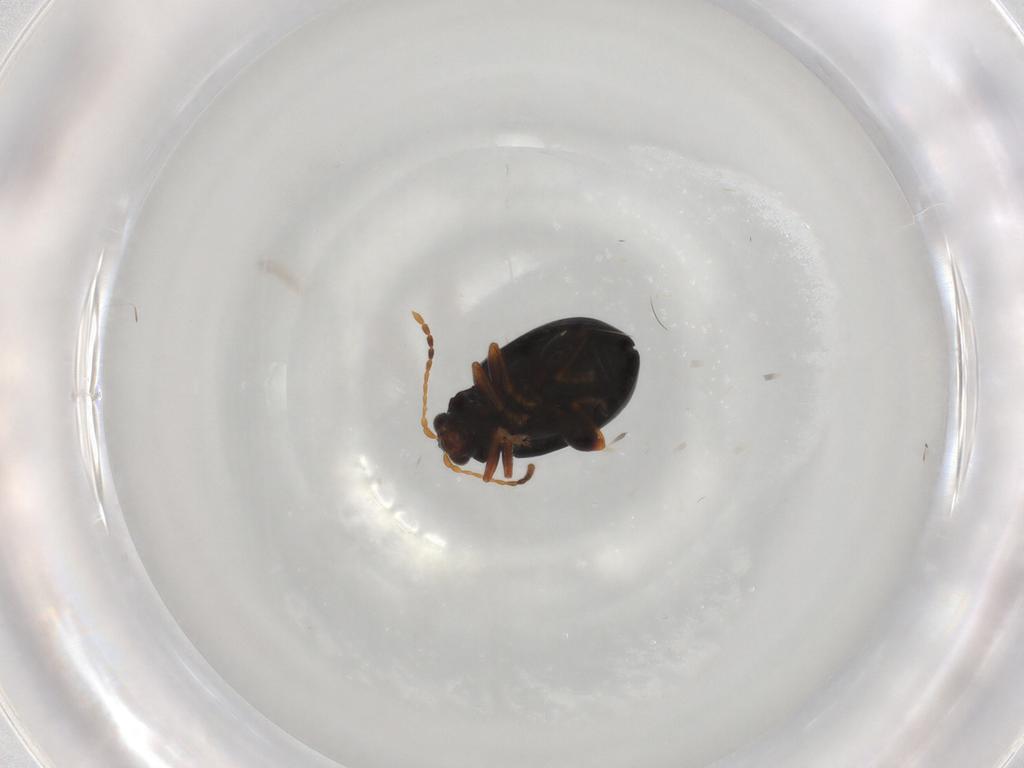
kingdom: Animalia
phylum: Arthropoda
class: Insecta
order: Coleoptera
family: Chrysomelidae
